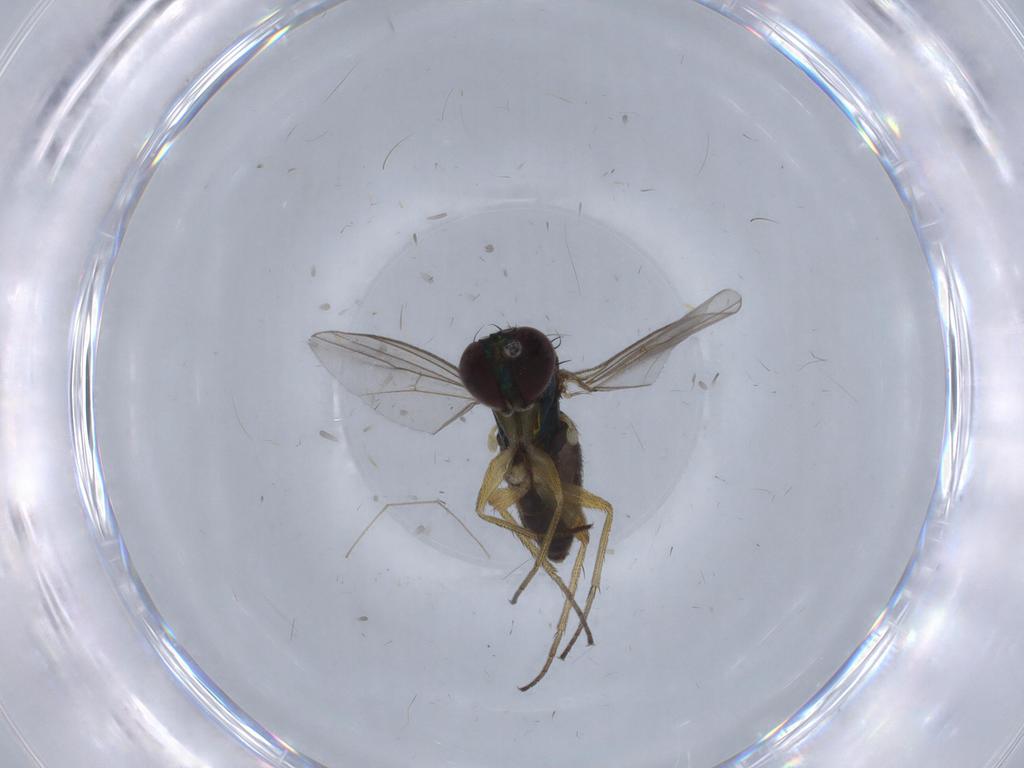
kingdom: Animalia
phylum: Arthropoda
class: Insecta
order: Diptera
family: Chironomidae
